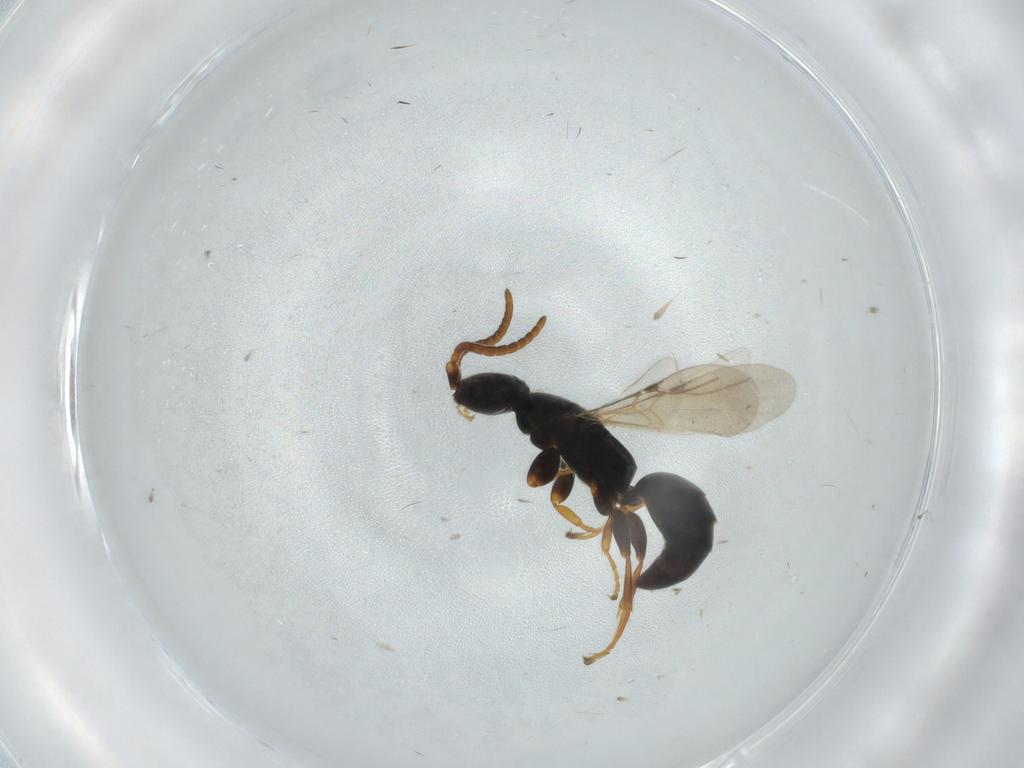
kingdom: Animalia
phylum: Arthropoda
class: Insecta
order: Hymenoptera
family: Bethylidae
